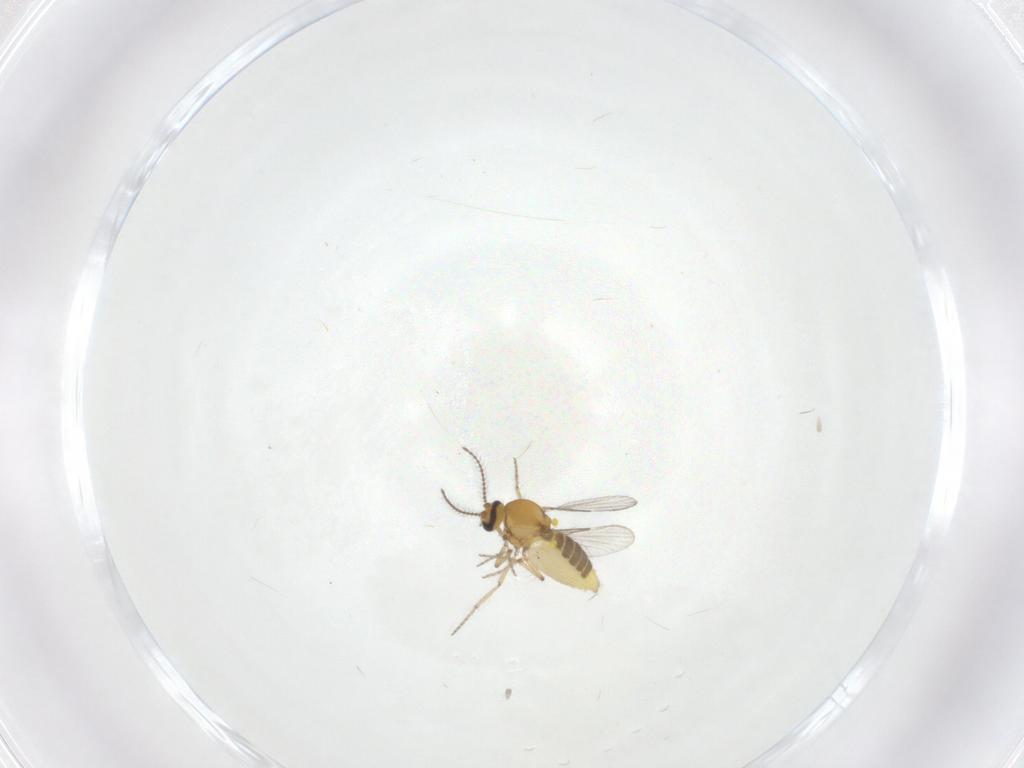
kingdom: Animalia
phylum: Arthropoda
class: Insecta
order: Diptera
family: Ceratopogonidae
